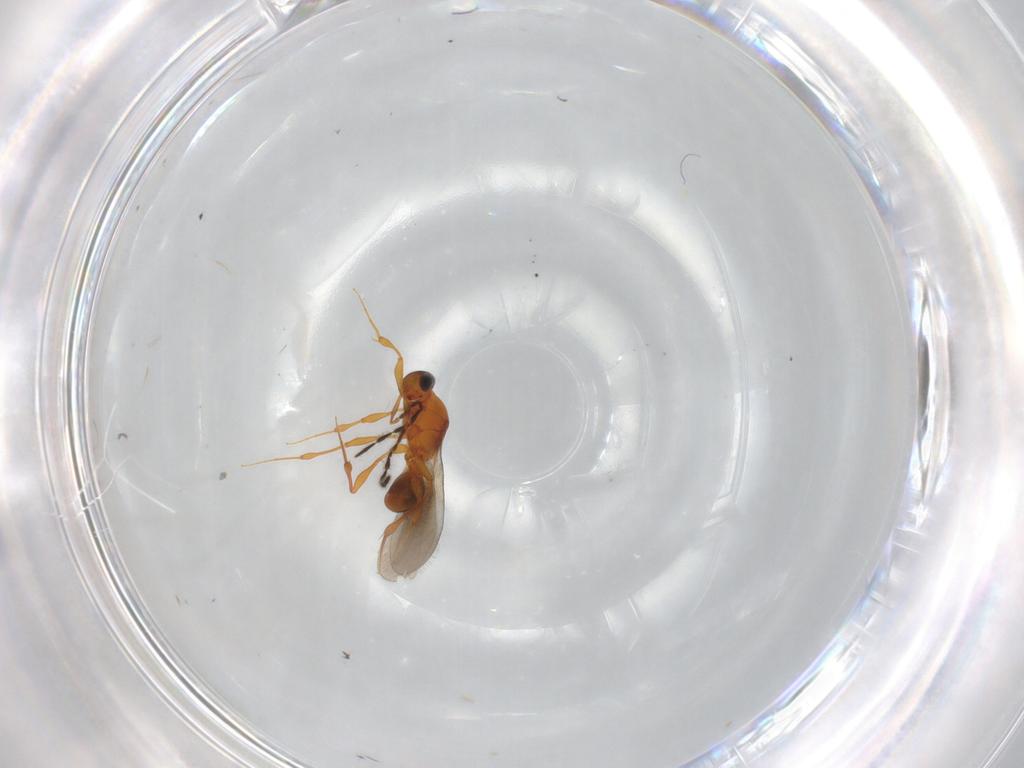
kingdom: Animalia
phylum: Arthropoda
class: Insecta
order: Hymenoptera
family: Platygastridae
